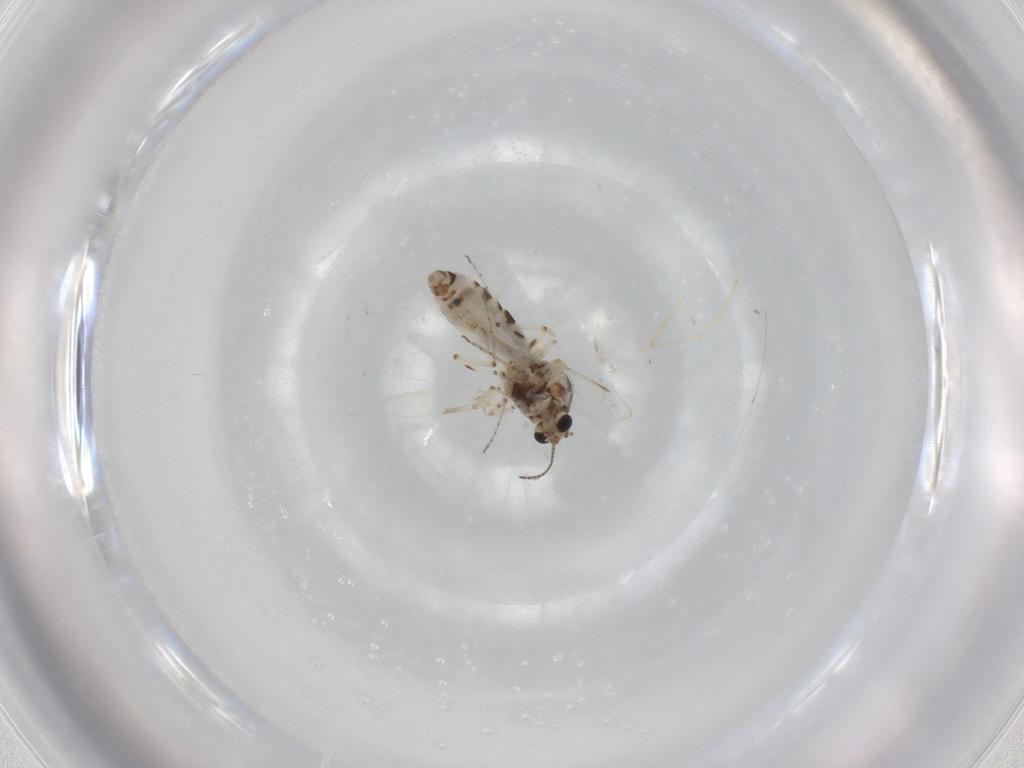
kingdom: Animalia
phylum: Arthropoda
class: Insecta
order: Diptera
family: Ceratopogonidae
